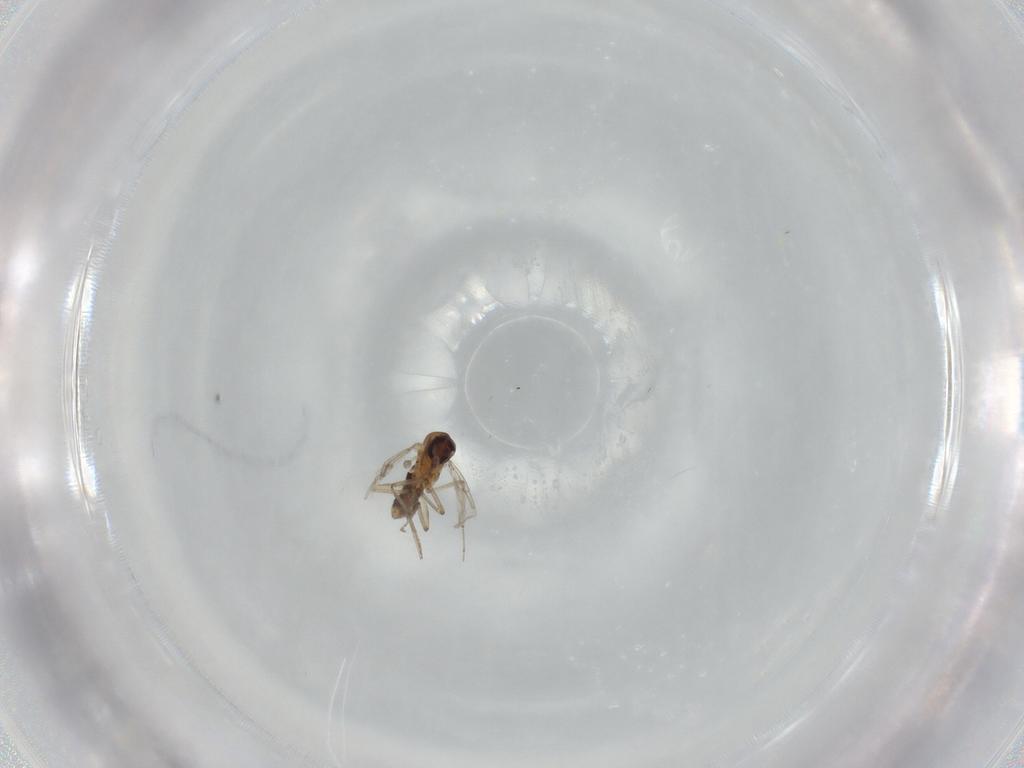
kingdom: Animalia
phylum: Arthropoda
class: Insecta
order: Diptera
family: Ceratopogonidae
